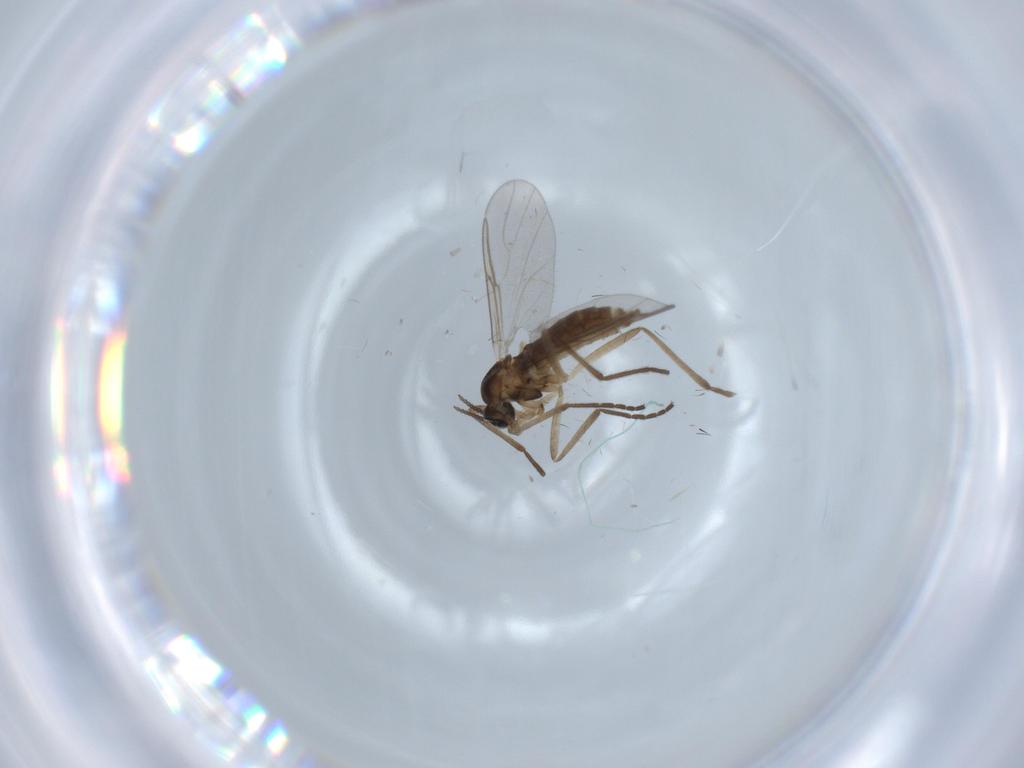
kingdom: Animalia
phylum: Arthropoda
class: Insecta
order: Diptera
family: Cecidomyiidae
